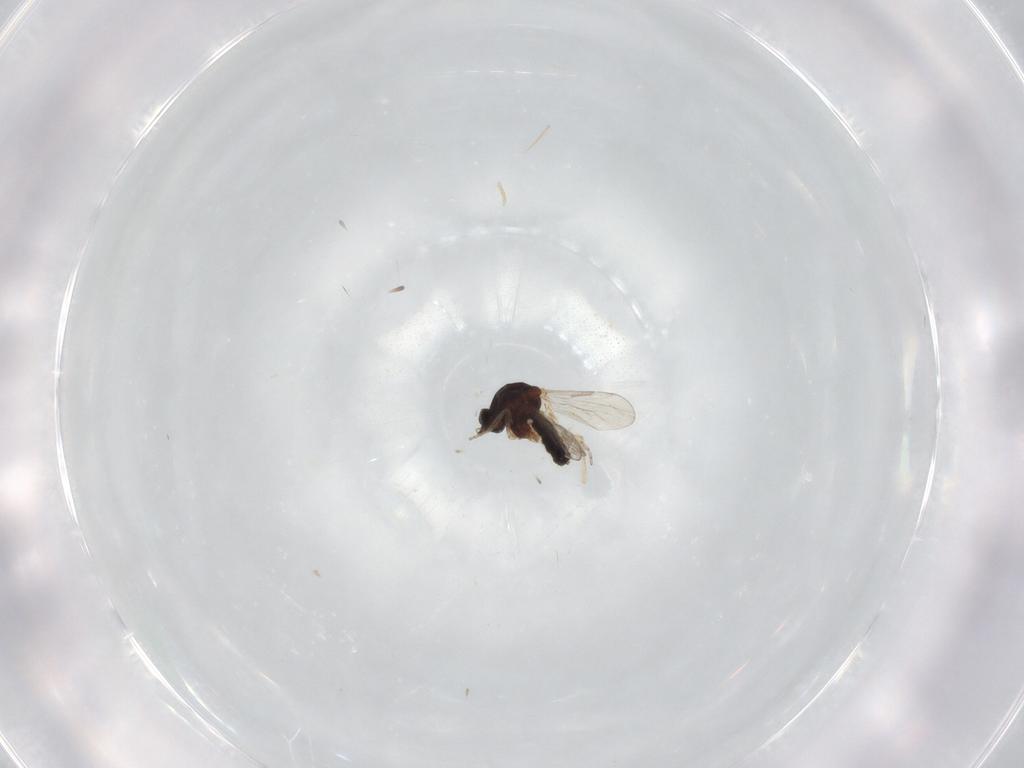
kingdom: Animalia
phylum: Arthropoda
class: Insecta
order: Diptera
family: Ceratopogonidae
